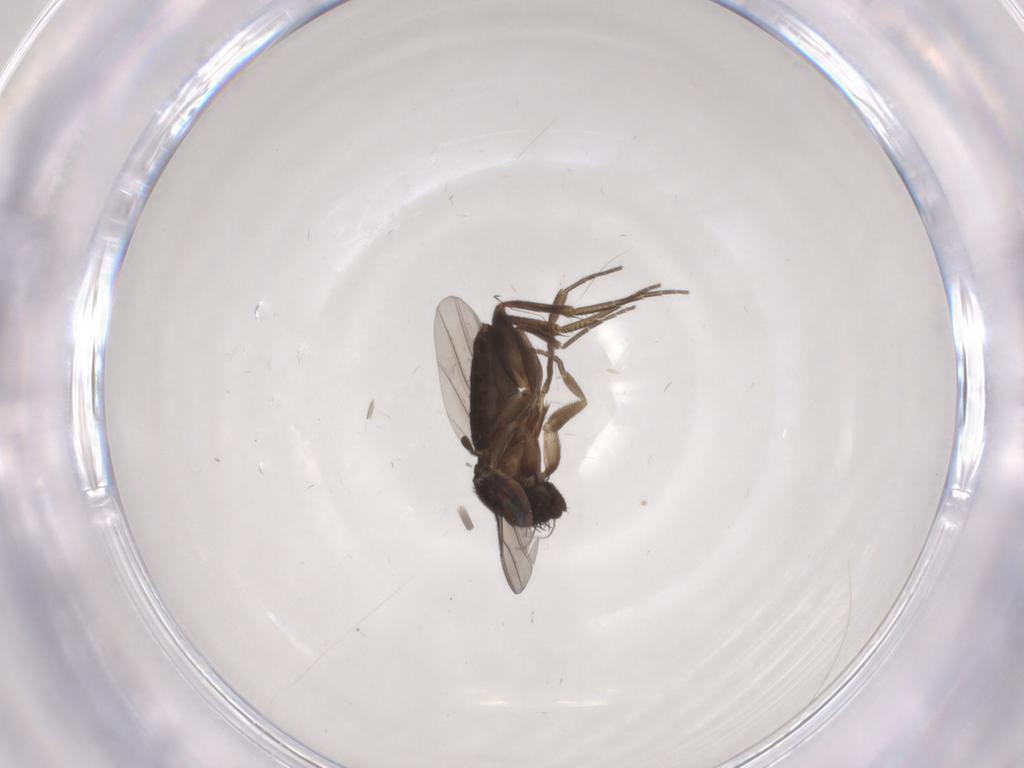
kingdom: Animalia
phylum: Arthropoda
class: Insecta
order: Diptera
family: Phoridae
